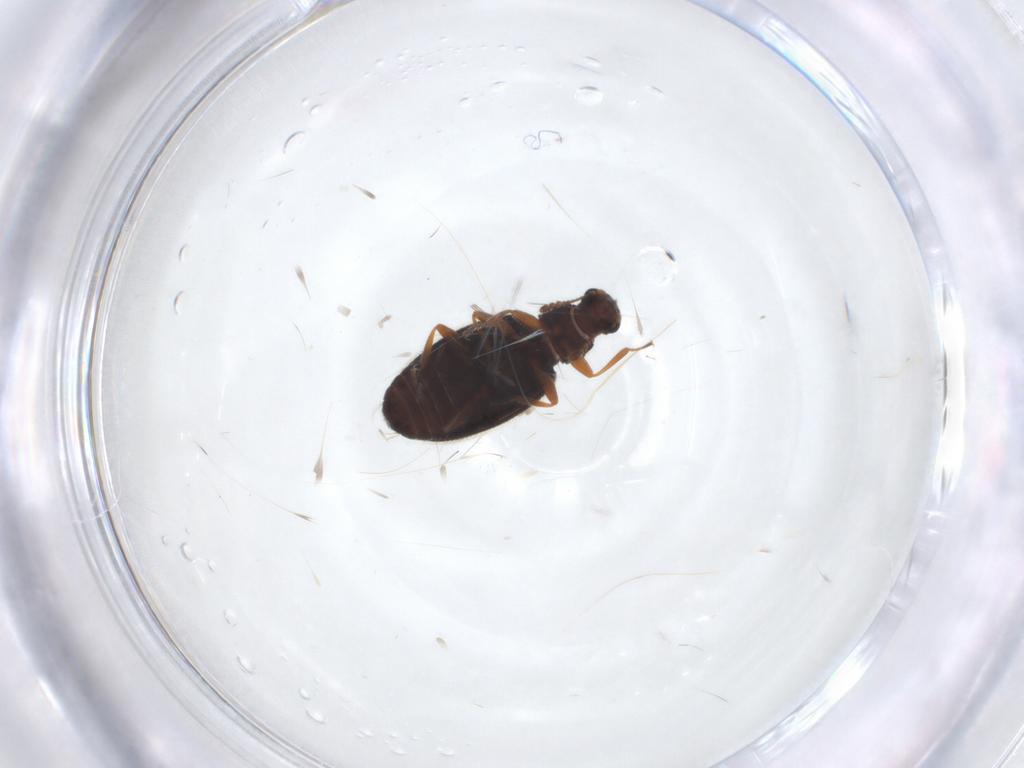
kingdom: Animalia
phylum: Arthropoda
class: Insecta
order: Coleoptera
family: Latridiidae
